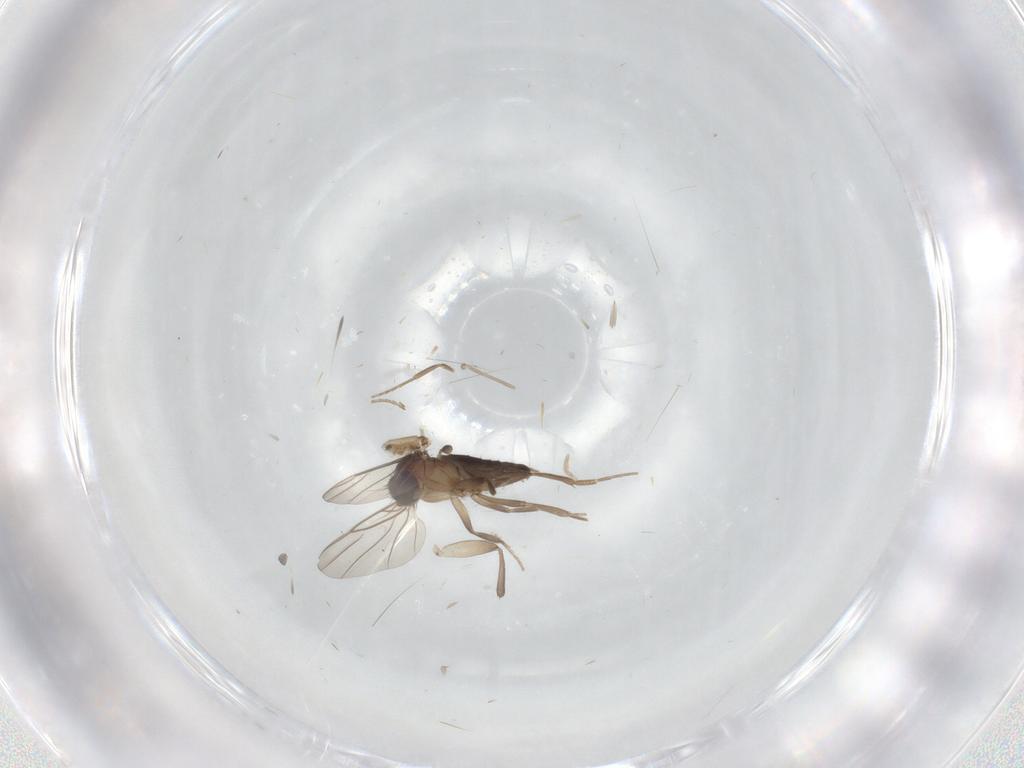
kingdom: Animalia
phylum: Arthropoda
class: Insecta
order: Diptera
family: Phoridae
